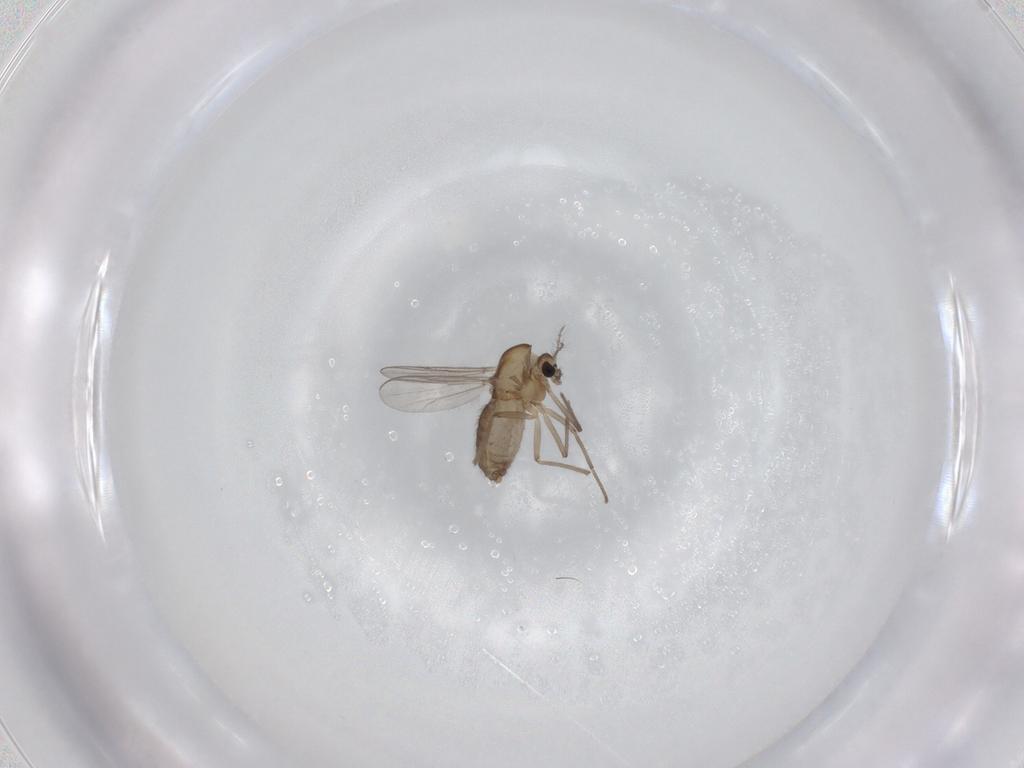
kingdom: Animalia
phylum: Arthropoda
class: Insecta
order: Diptera
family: Chironomidae
